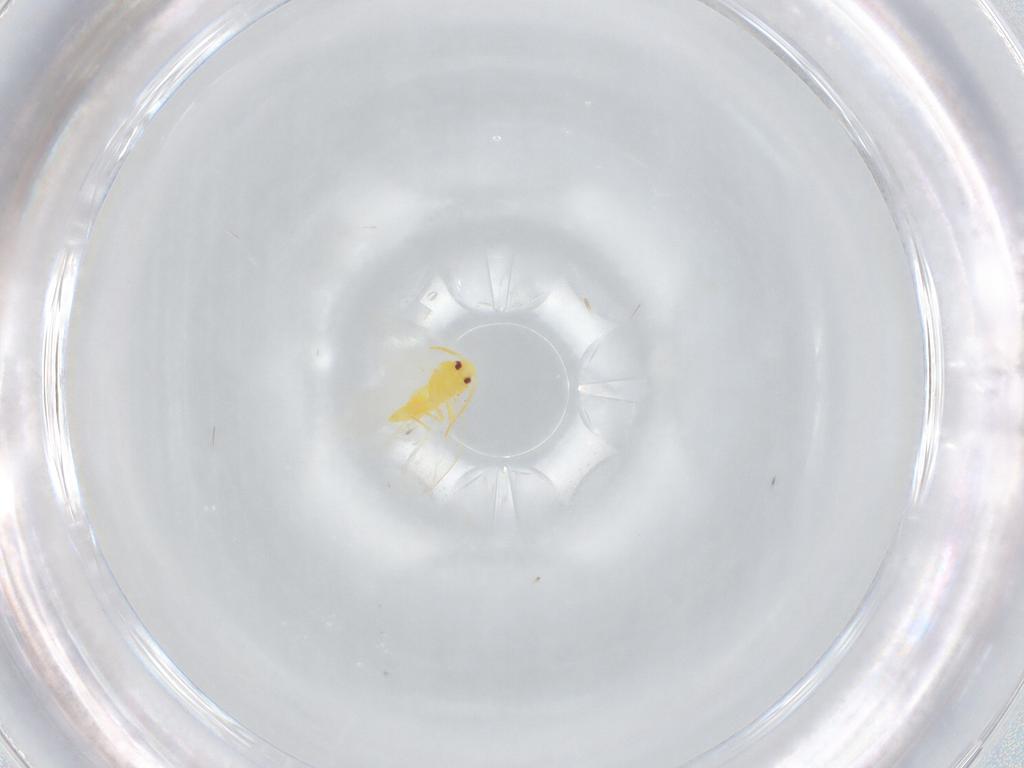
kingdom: Animalia
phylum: Arthropoda
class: Insecta
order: Hemiptera
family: Aleyrodidae
